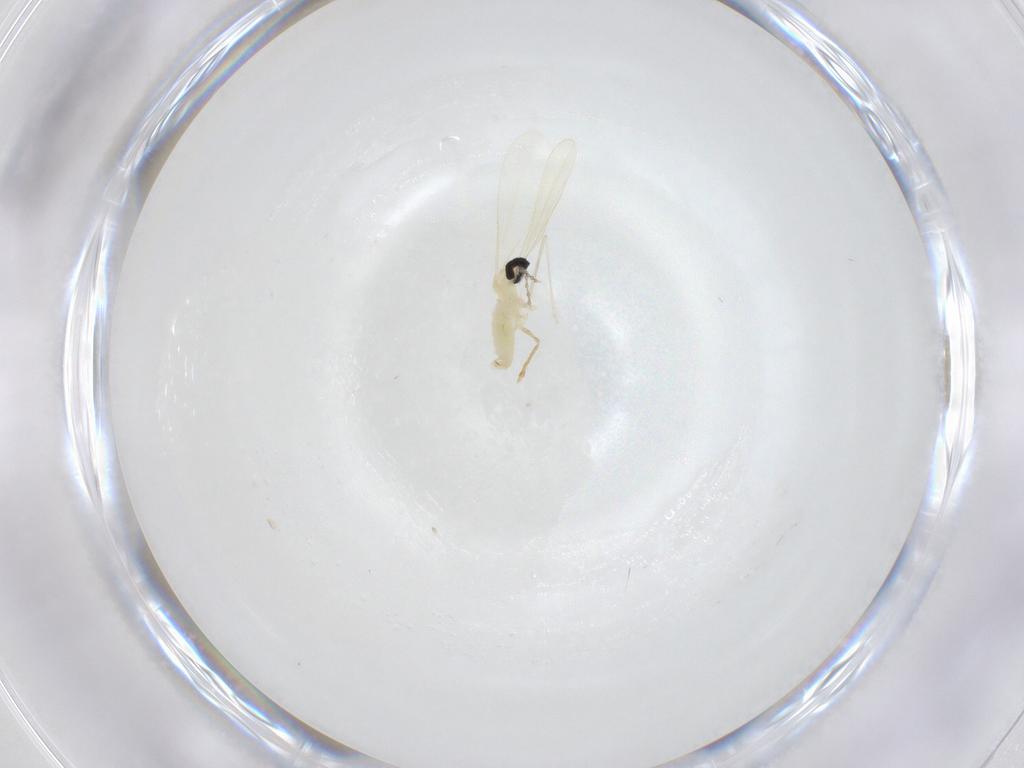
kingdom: Animalia
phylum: Arthropoda
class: Insecta
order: Diptera
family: Cecidomyiidae
